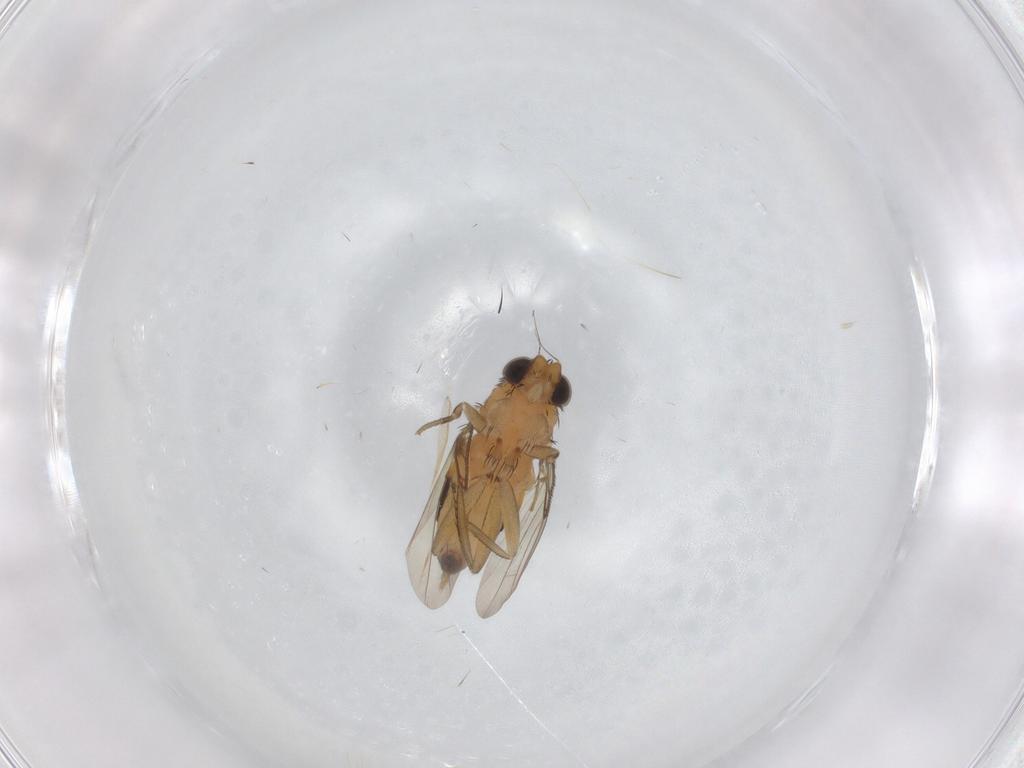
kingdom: Animalia
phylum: Arthropoda
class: Insecta
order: Diptera
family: Phoridae
